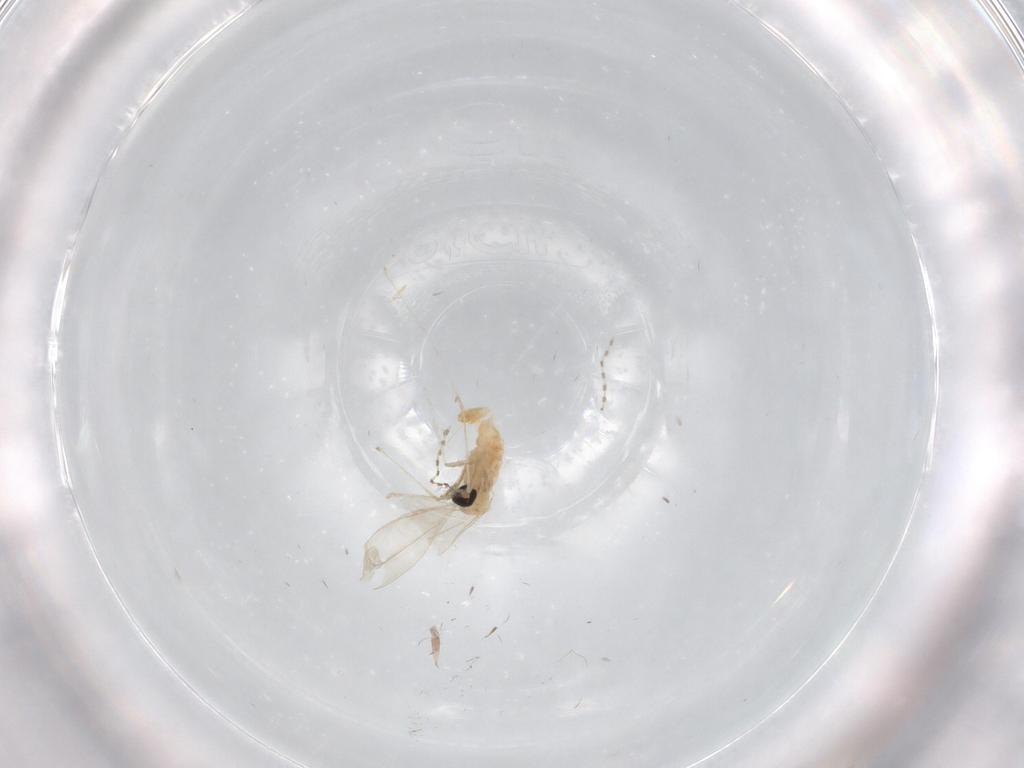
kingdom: Animalia
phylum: Arthropoda
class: Insecta
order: Diptera
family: Cecidomyiidae
